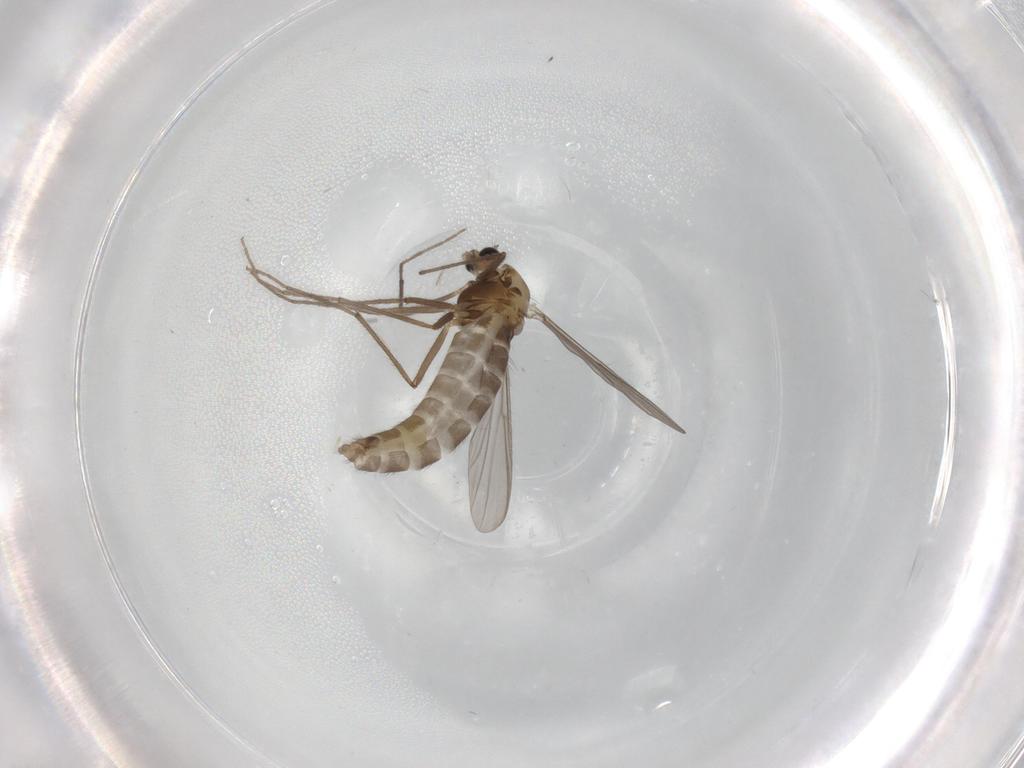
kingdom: Animalia
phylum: Arthropoda
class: Insecta
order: Diptera
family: Chironomidae
